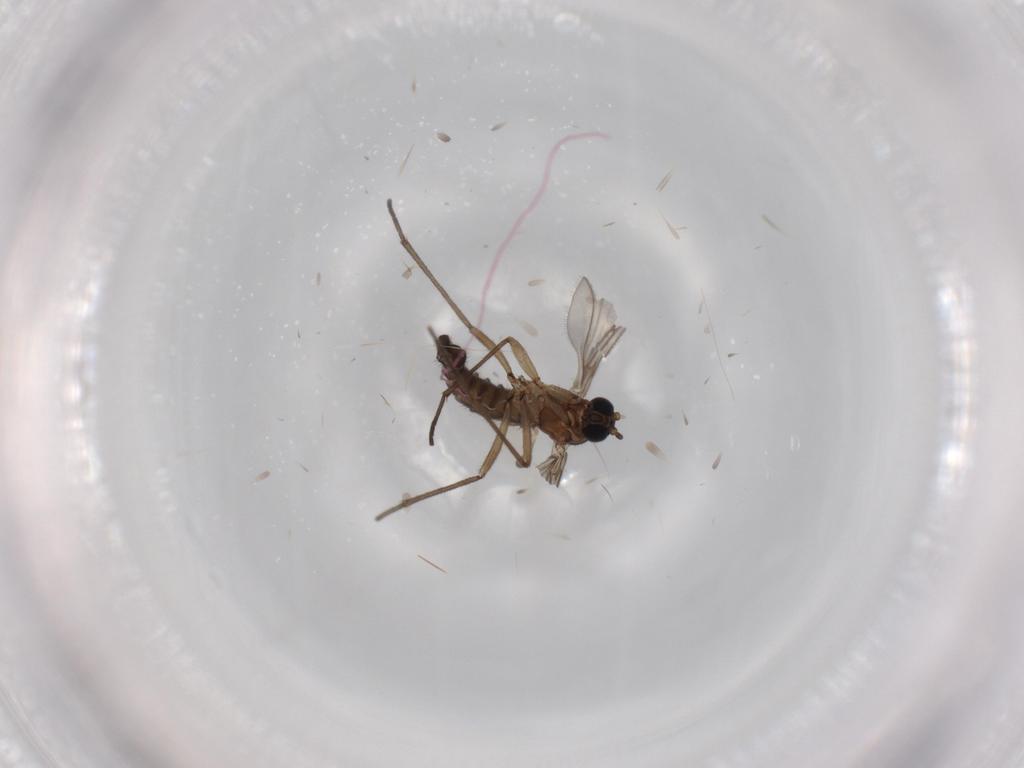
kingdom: Animalia
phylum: Arthropoda
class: Insecta
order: Diptera
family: Sciaridae
